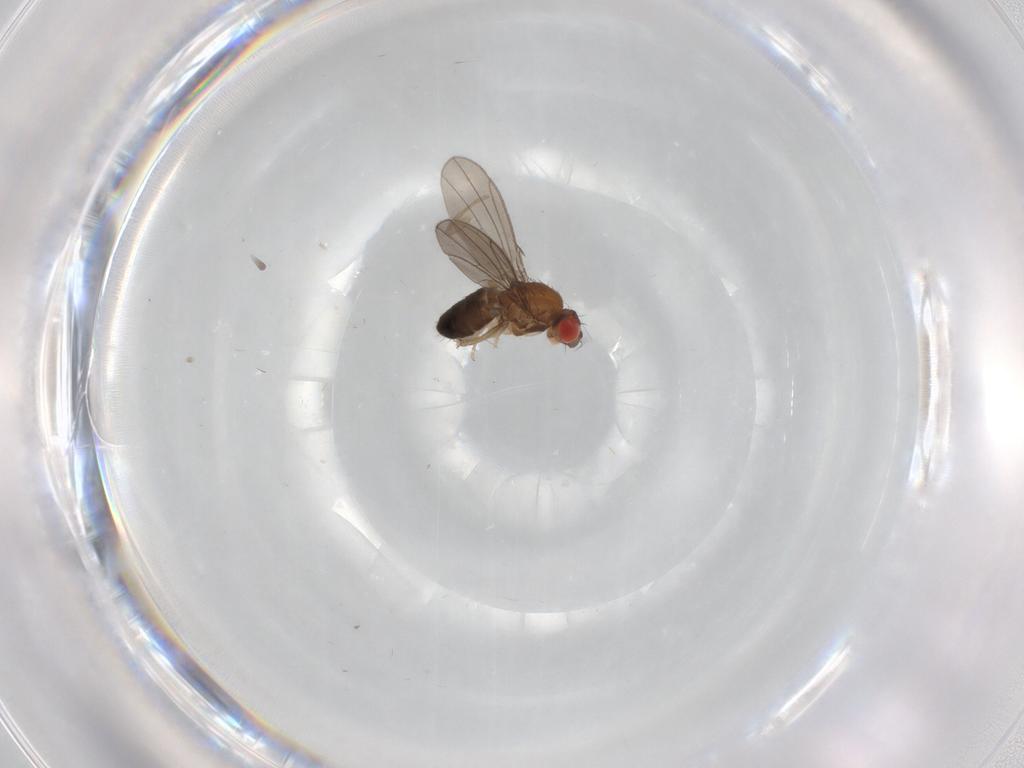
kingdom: Animalia
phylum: Arthropoda
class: Insecta
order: Diptera
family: Drosophilidae
